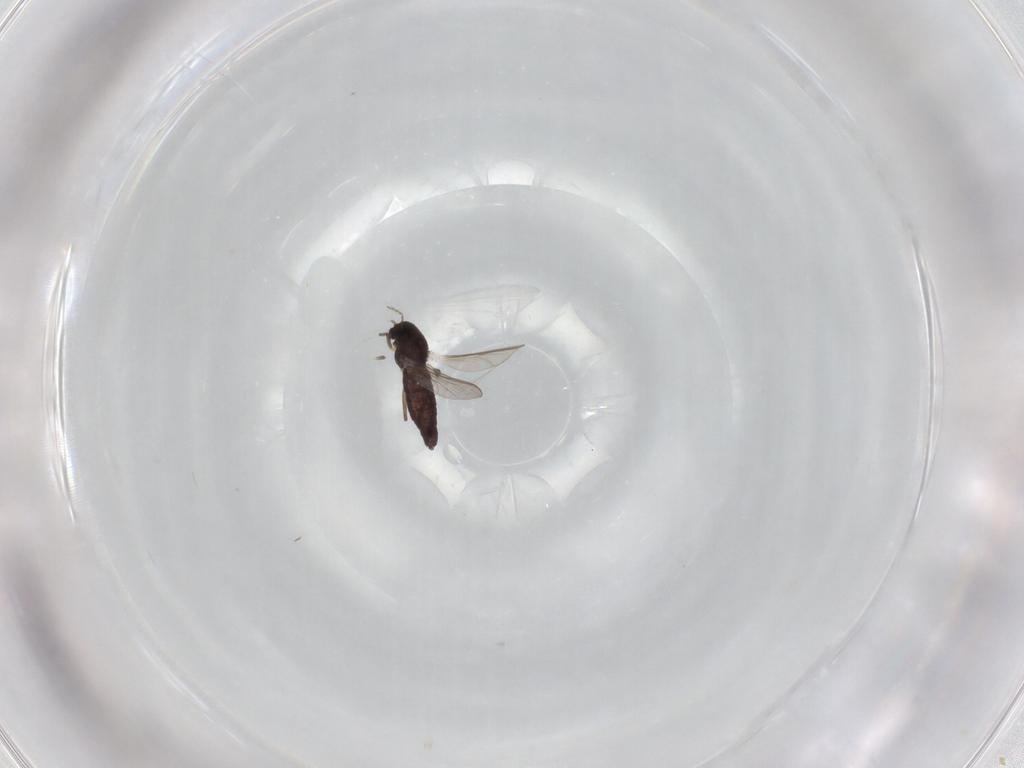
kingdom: Animalia
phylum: Arthropoda
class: Insecta
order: Diptera
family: Chironomidae
